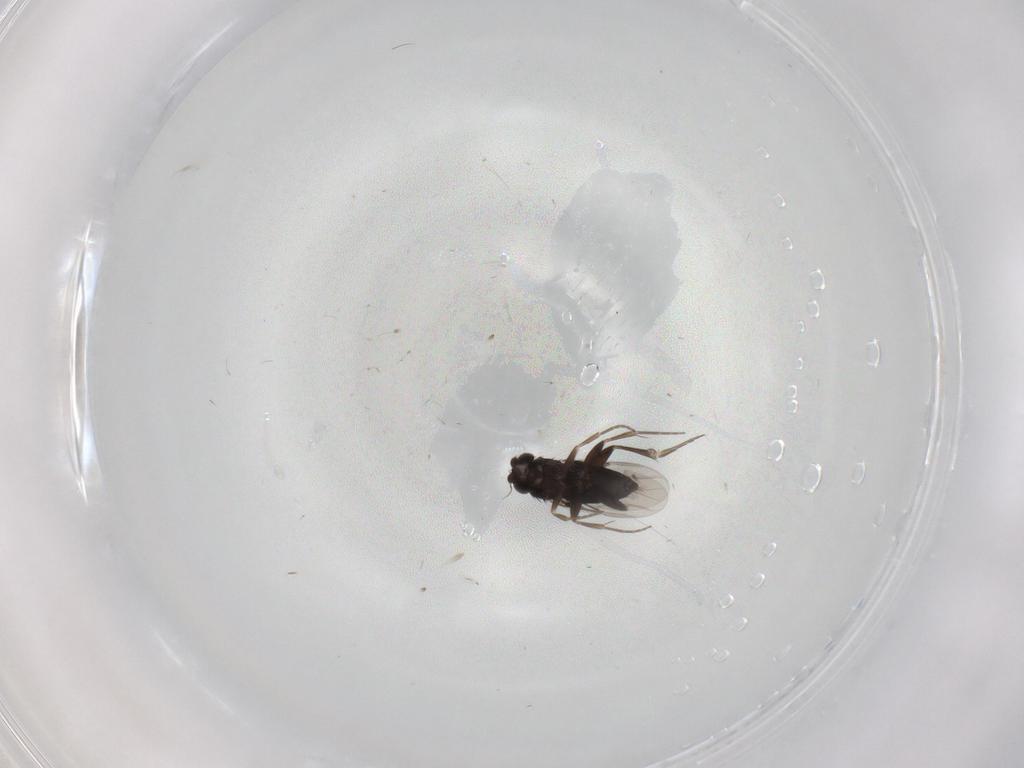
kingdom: Animalia
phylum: Arthropoda
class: Insecta
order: Diptera
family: Phoridae
